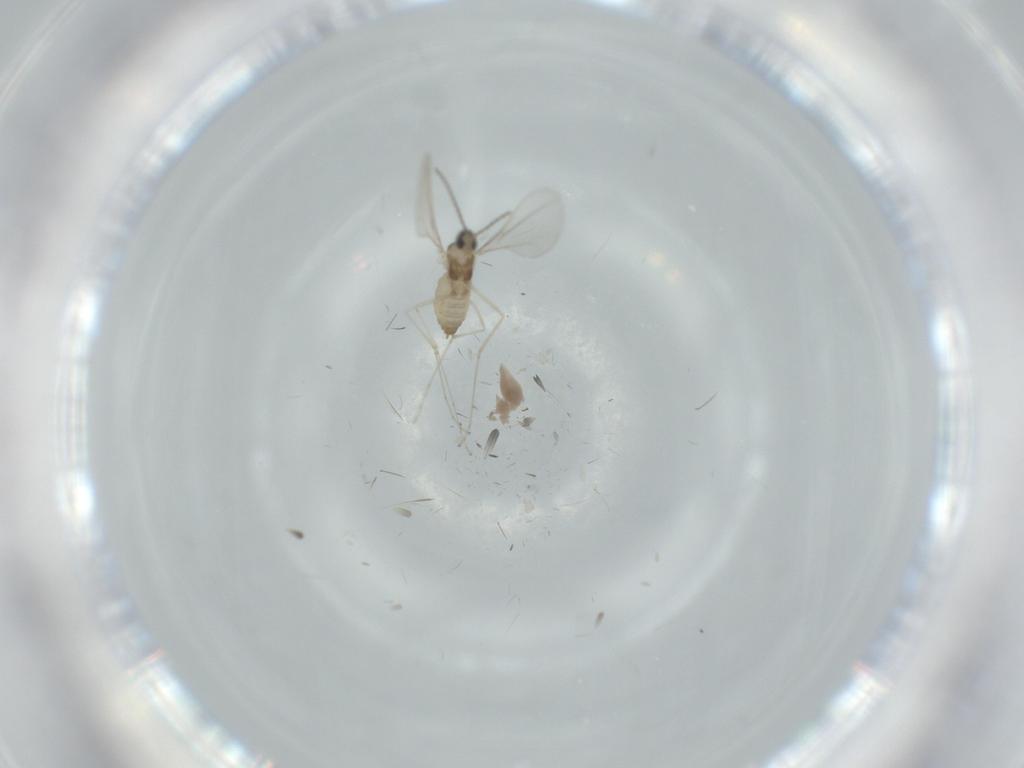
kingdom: Animalia
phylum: Arthropoda
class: Insecta
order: Diptera
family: Cecidomyiidae
